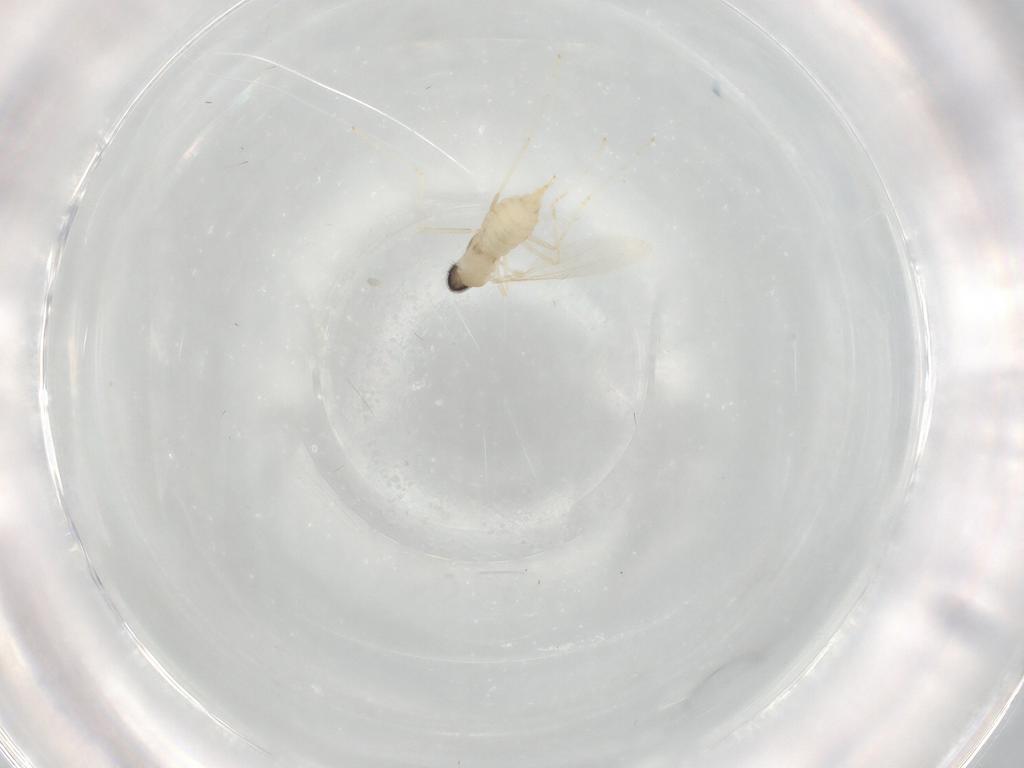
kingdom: Animalia
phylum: Arthropoda
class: Insecta
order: Diptera
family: Cecidomyiidae
